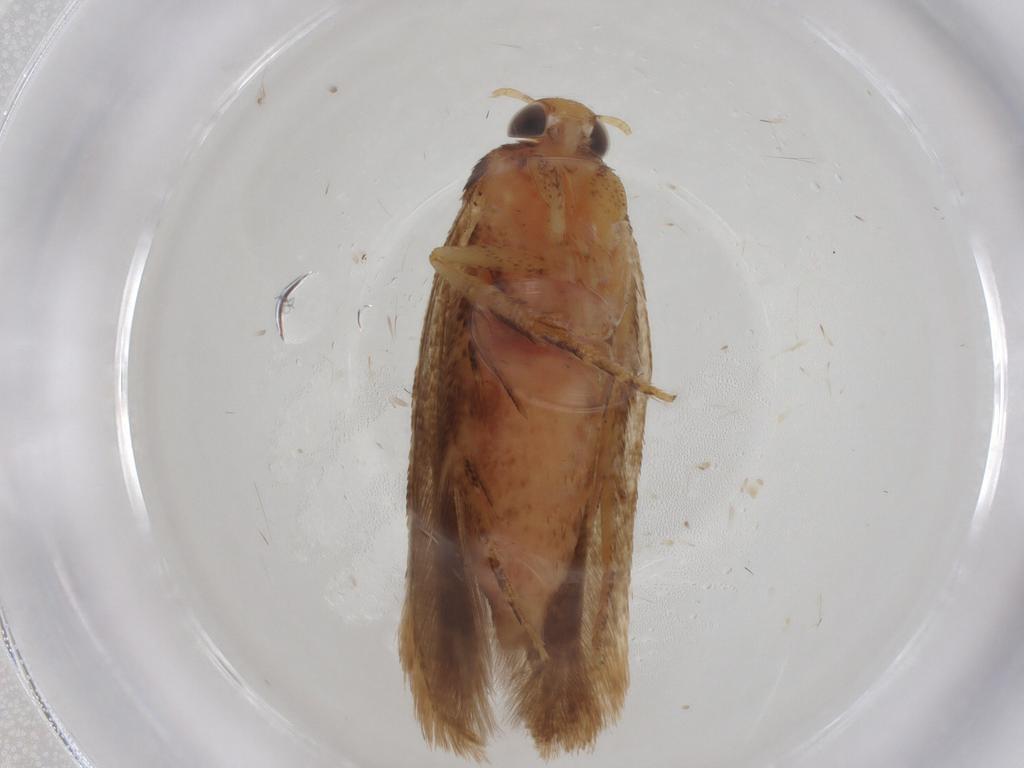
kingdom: Animalia
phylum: Arthropoda
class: Insecta
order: Lepidoptera
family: Gelechiidae
